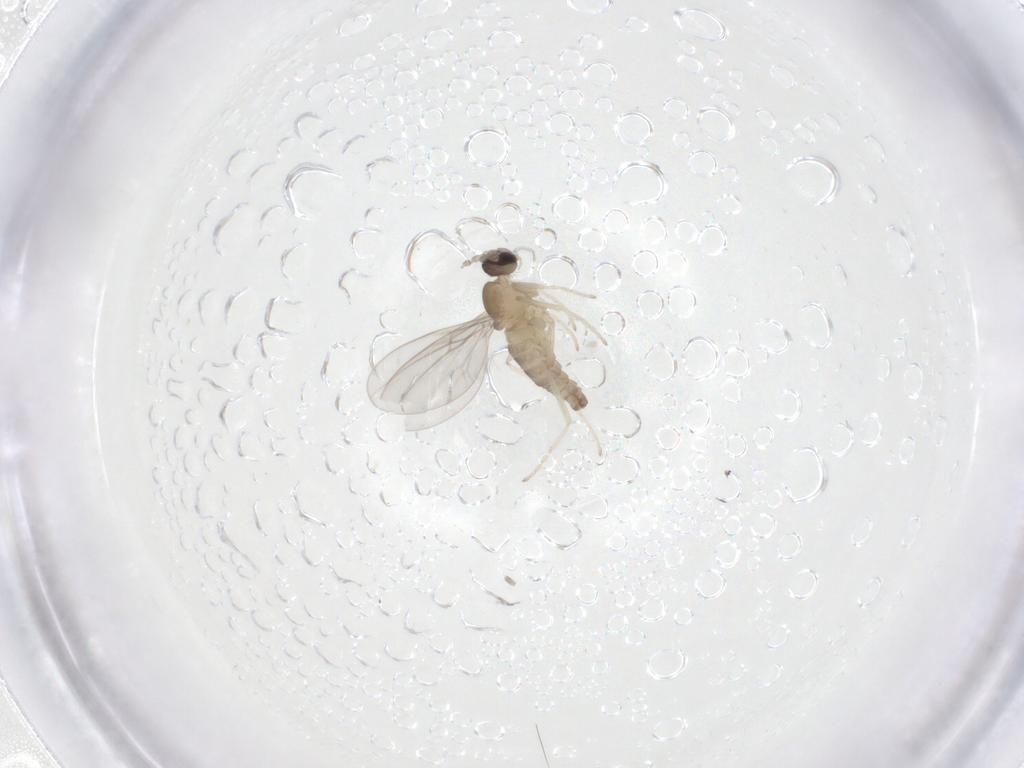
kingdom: Animalia
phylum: Arthropoda
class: Insecta
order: Diptera
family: Cecidomyiidae
